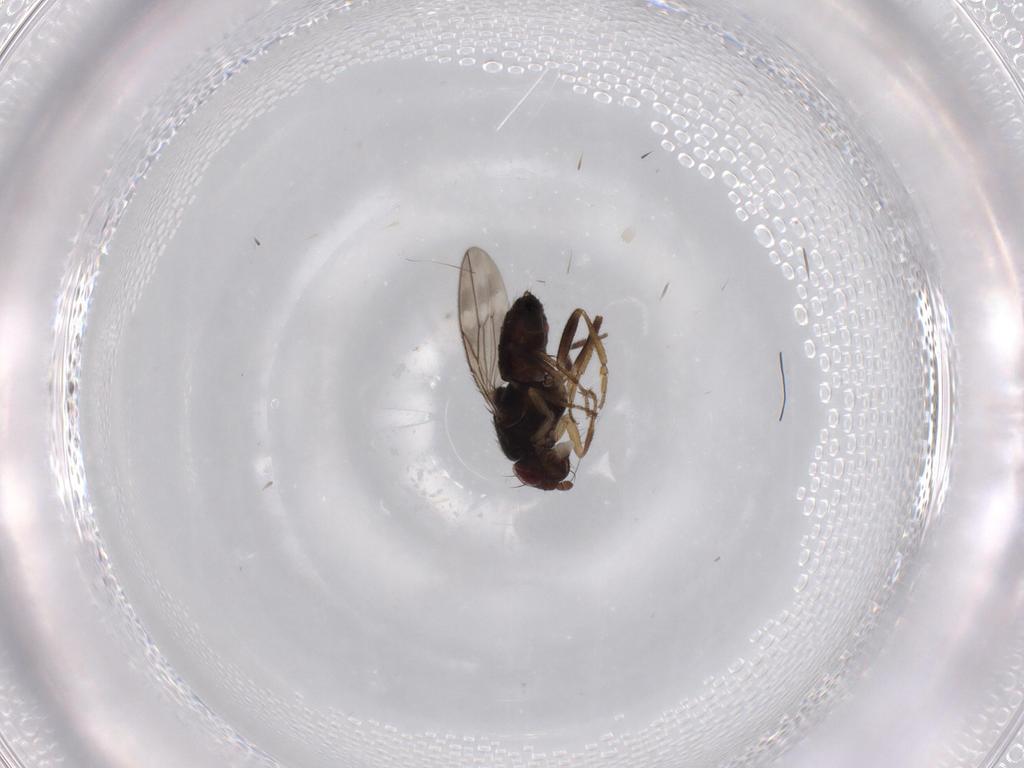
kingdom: Animalia
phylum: Arthropoda
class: Insecta
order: Diptera
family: Sphaeroceridae
